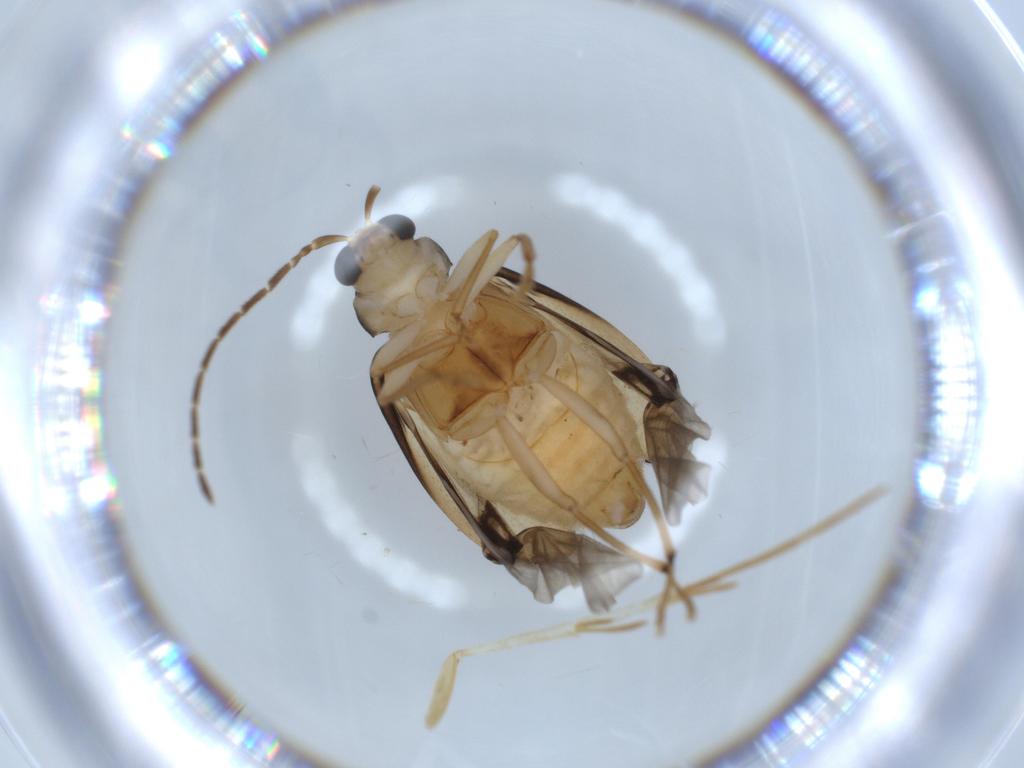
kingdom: Animalia
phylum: Arthropoda
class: Insecta
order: Coleoptera
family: Chrysomelidae
